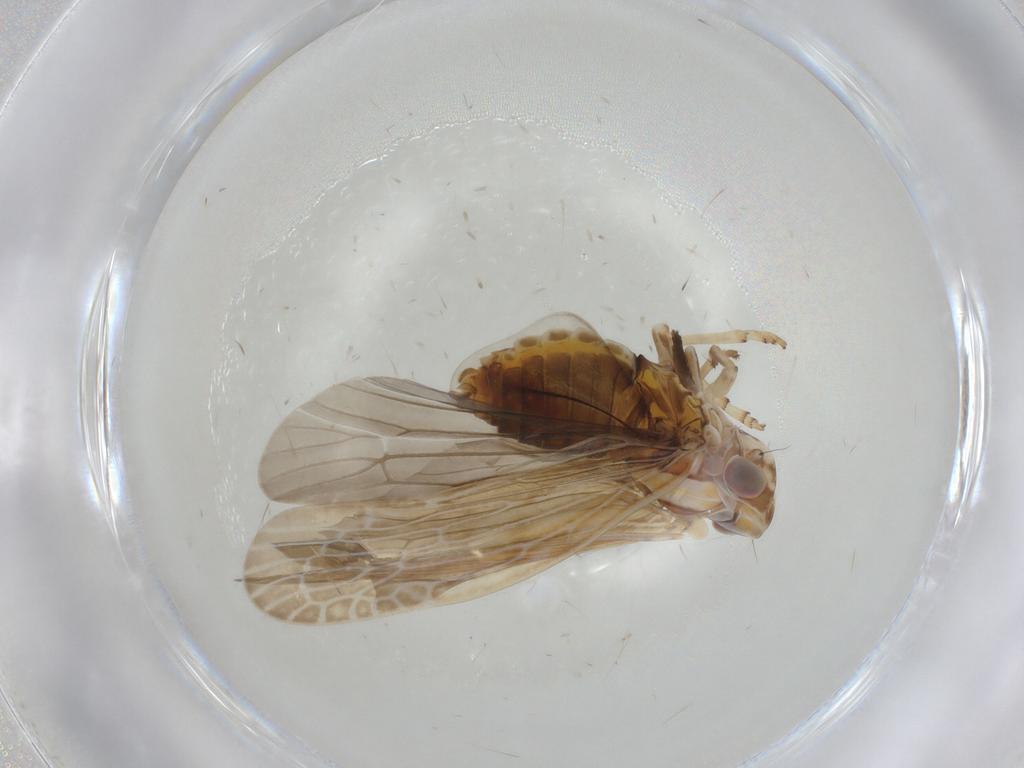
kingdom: Animalia
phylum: Arthropoda
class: Insecta
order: Hemiptera
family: Achilidae
